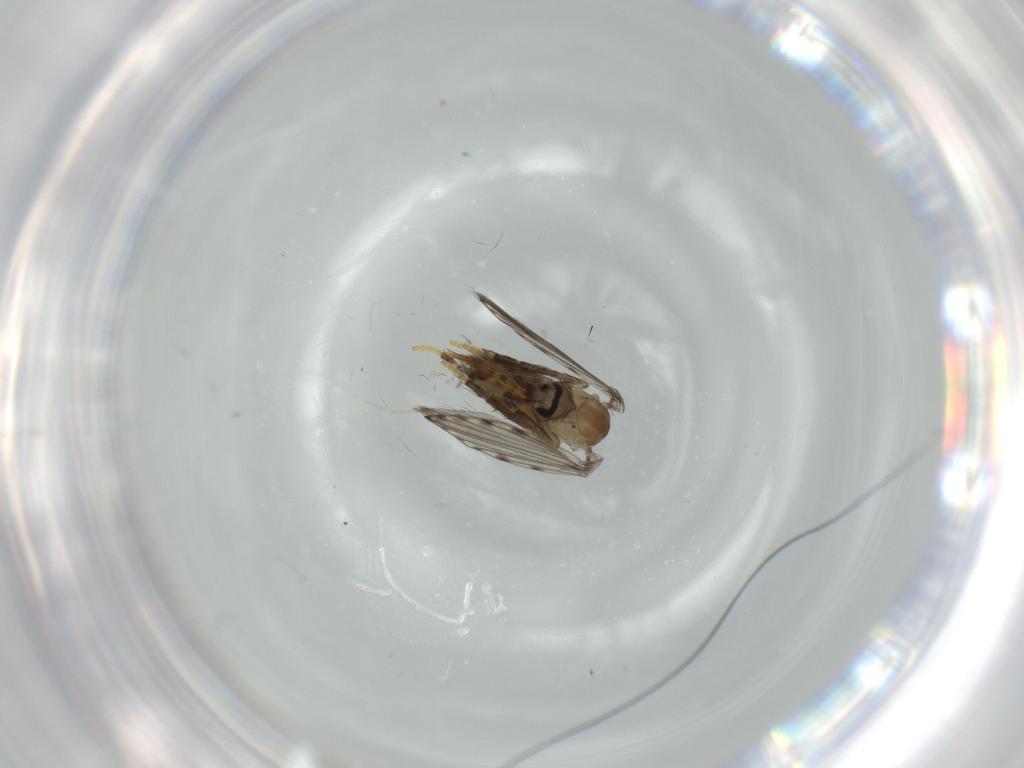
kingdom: Animalia
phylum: Arthropoda
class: Insecta
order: Diptera
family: Psychodidae
